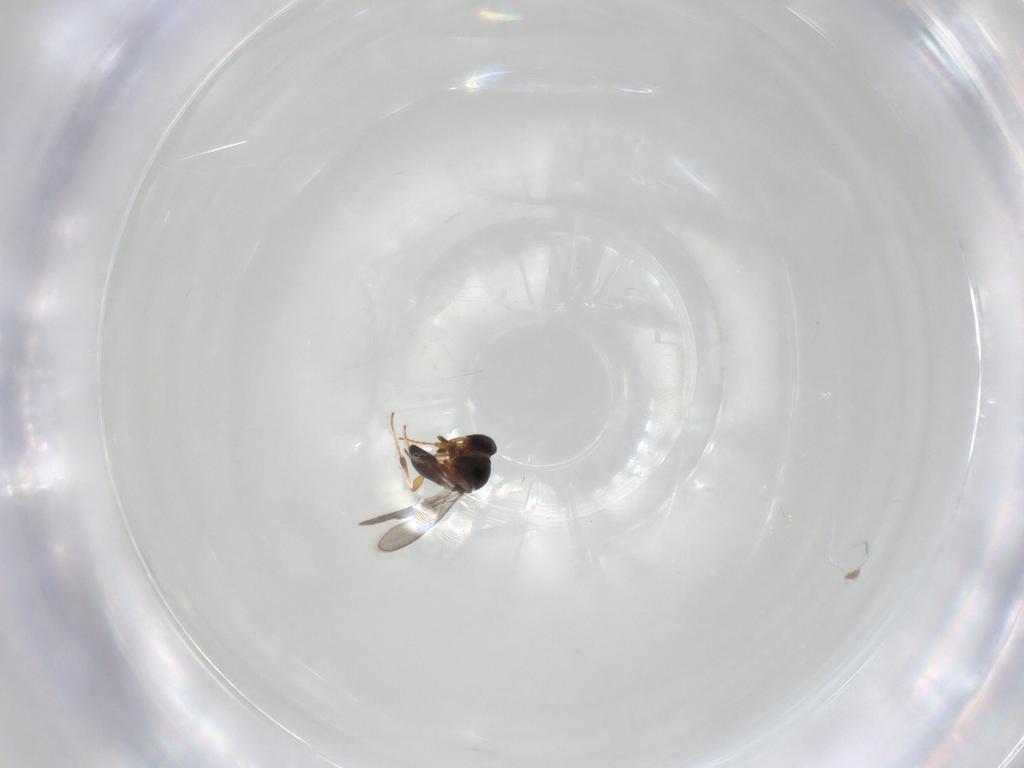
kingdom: Animalia
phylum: Arthropoda
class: Insecta
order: Hymenoptera
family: Platygastridae
